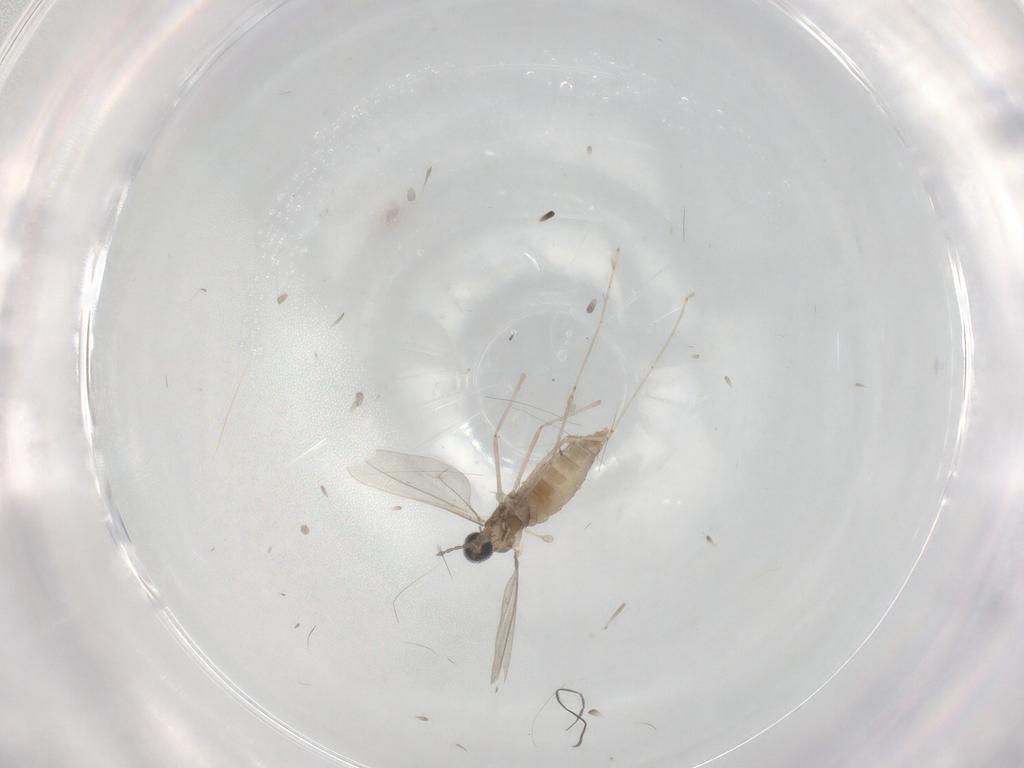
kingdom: Animalia
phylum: Arthropoda
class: Insecta
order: Diptera
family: Cecidomyiidae
